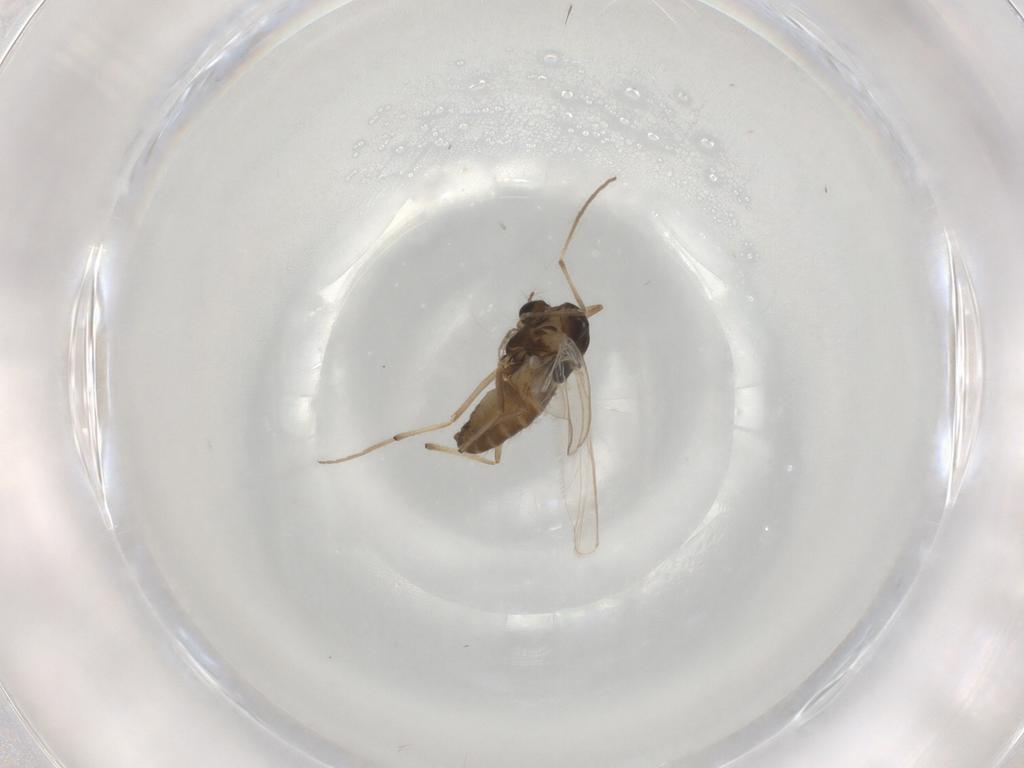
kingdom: Animalia
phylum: Arthropoda
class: Insecta
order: Diptera
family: Chironomidae
